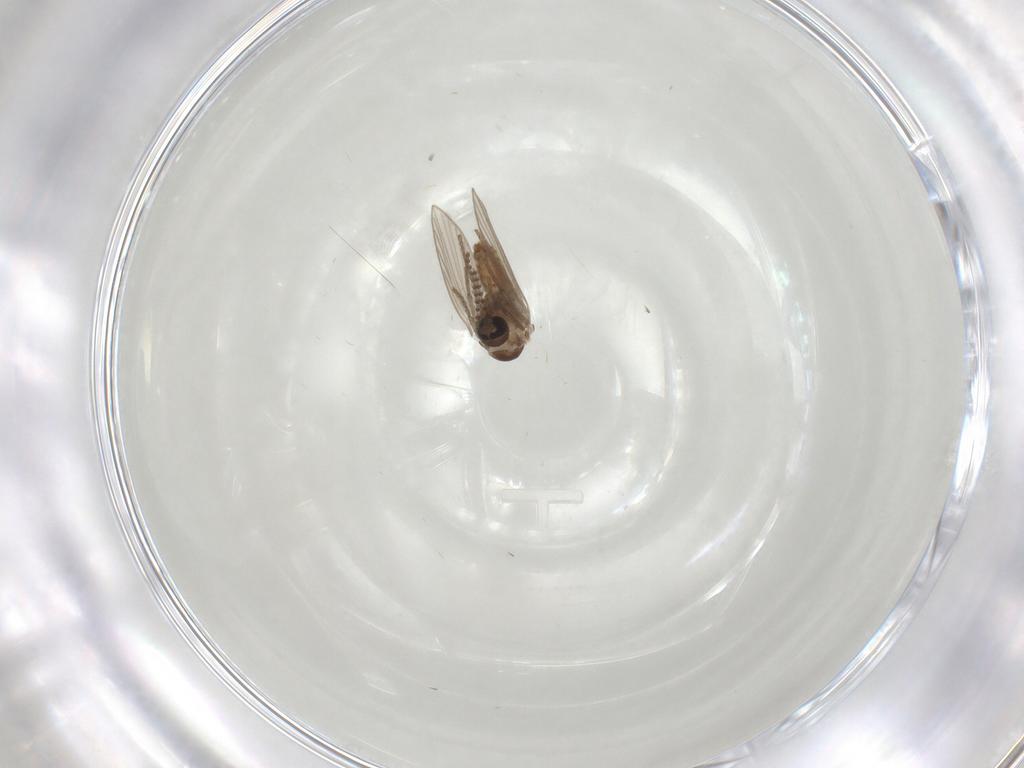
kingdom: Animalia
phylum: Arthropoda
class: Insecta
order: Diptera
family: Psychodidae
